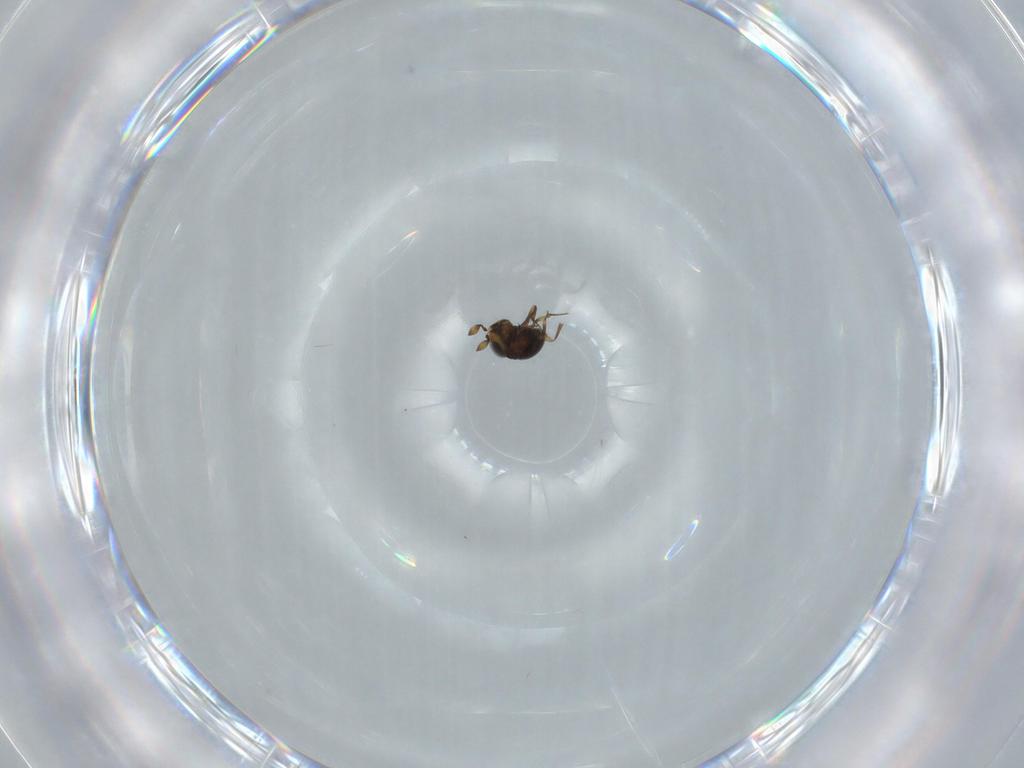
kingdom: Animalia
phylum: Arthropoda
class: Insecta
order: Hymenoptera
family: Scelionidae
